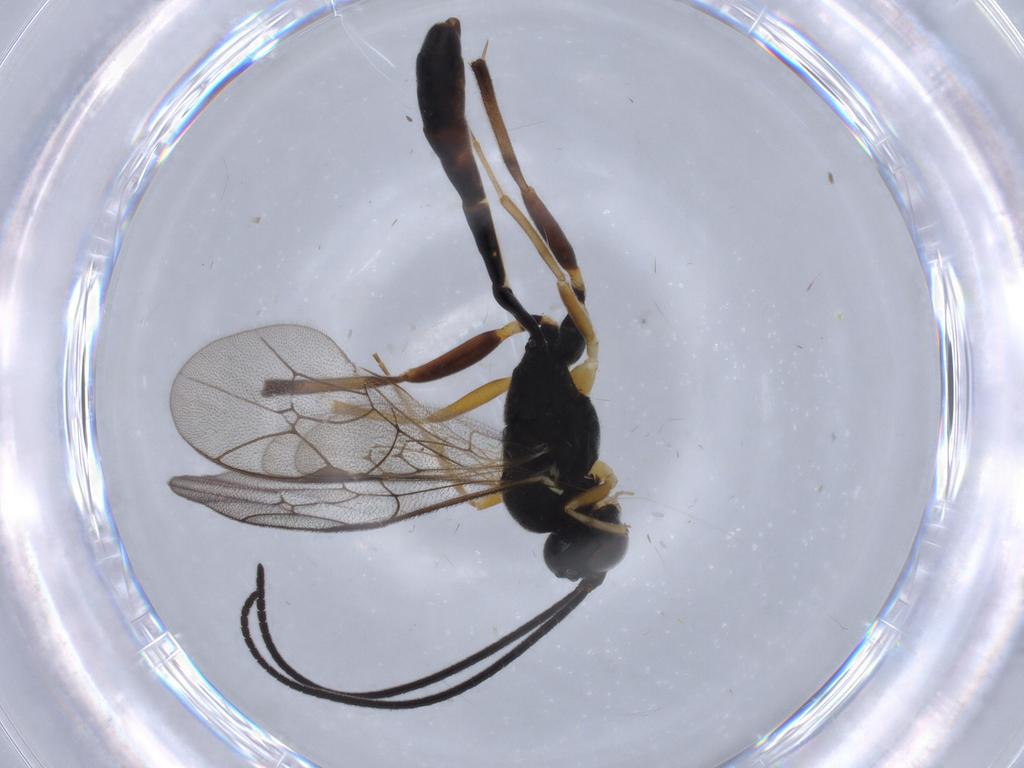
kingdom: Animalia
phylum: Arthropoda
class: Insecta
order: Hymenoptera
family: Ichneumonidae
